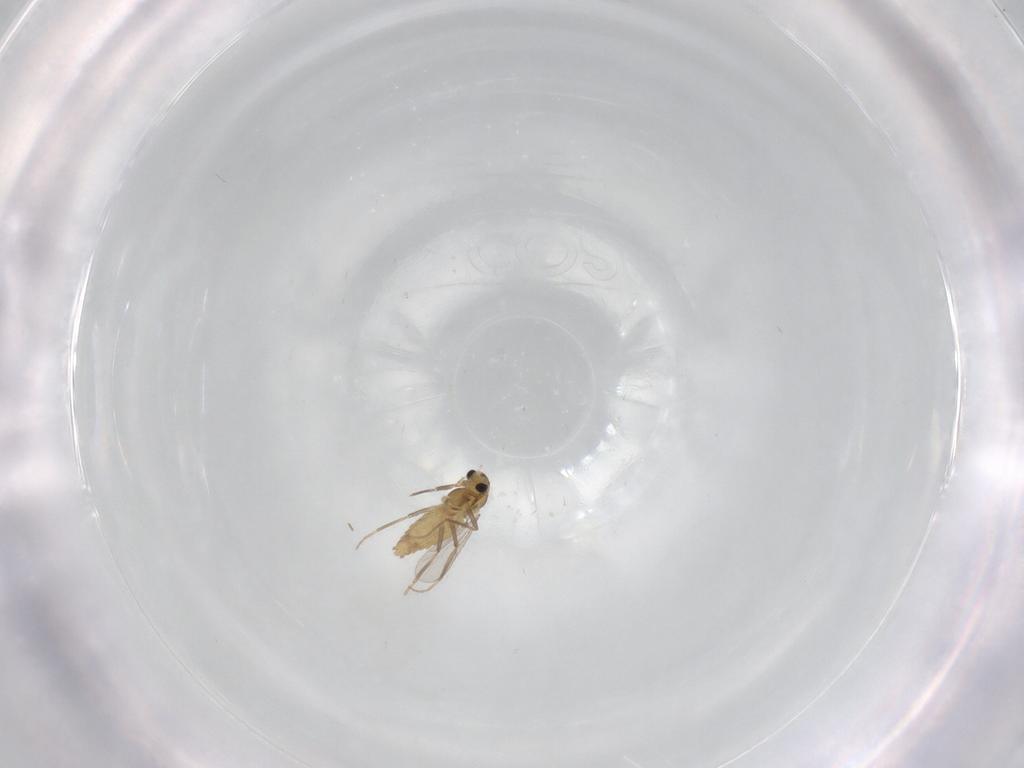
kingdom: Animalia
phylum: Arthropoda
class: Insecta
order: Diptera
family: Chironomidae
